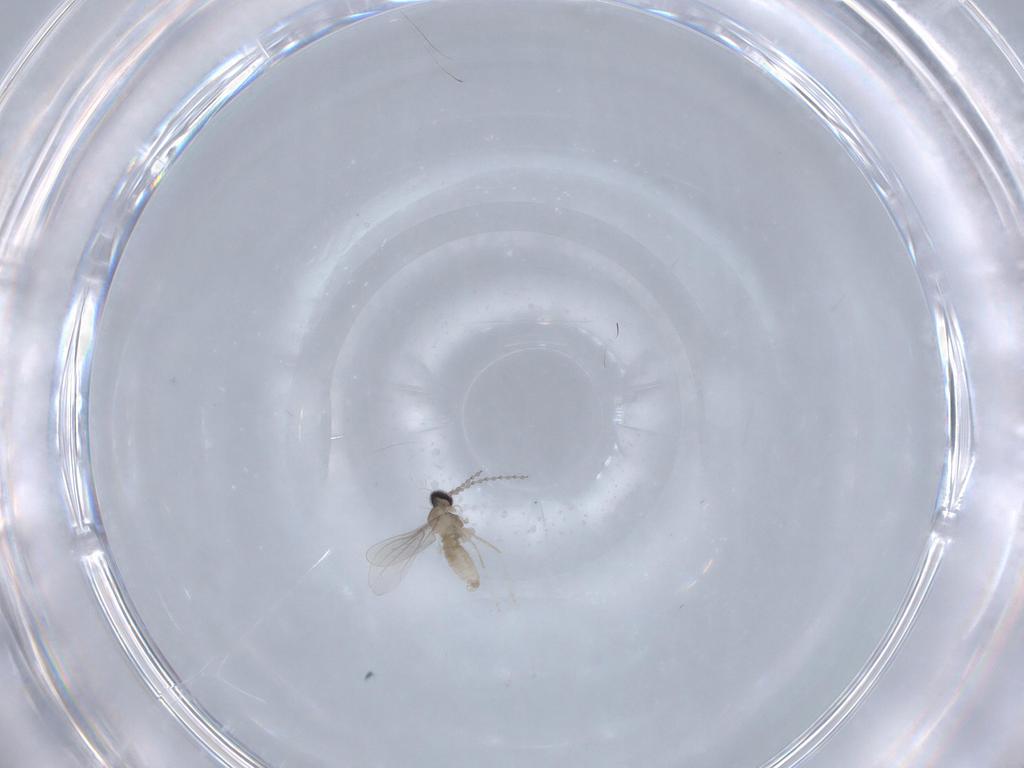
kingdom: Animalia
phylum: Arthropoda
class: Insecta
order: Diptera
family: Cecidomyiidae
